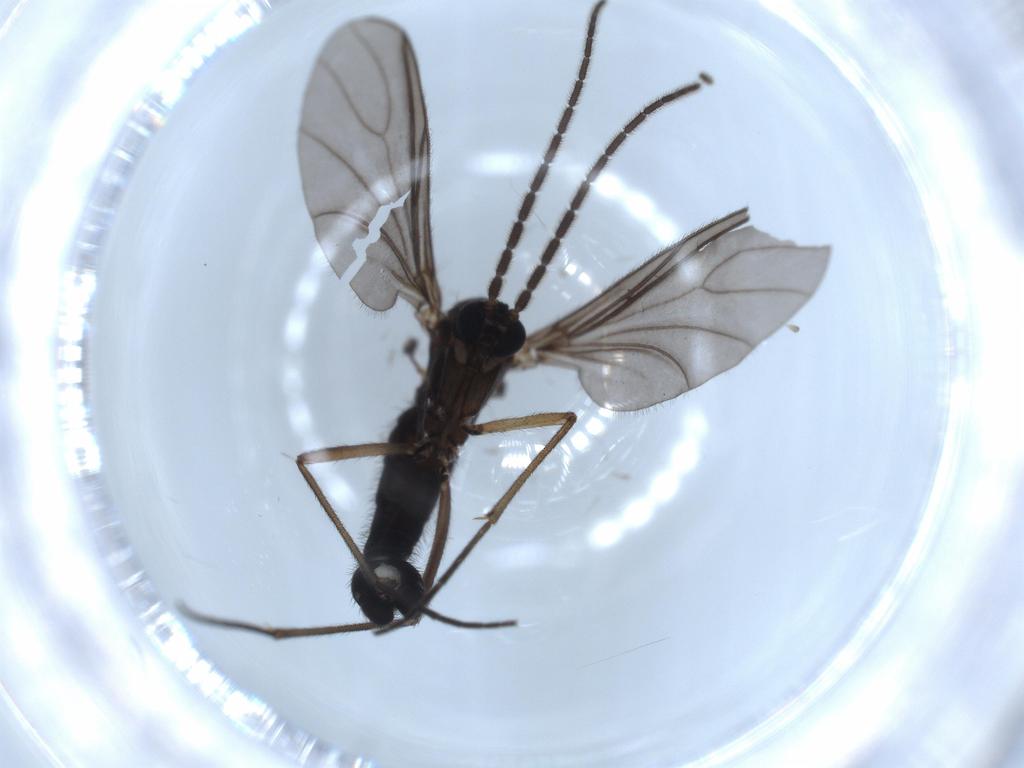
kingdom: Animalia
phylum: Arthropoda
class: Insecta
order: Diptera
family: Sciaridae
